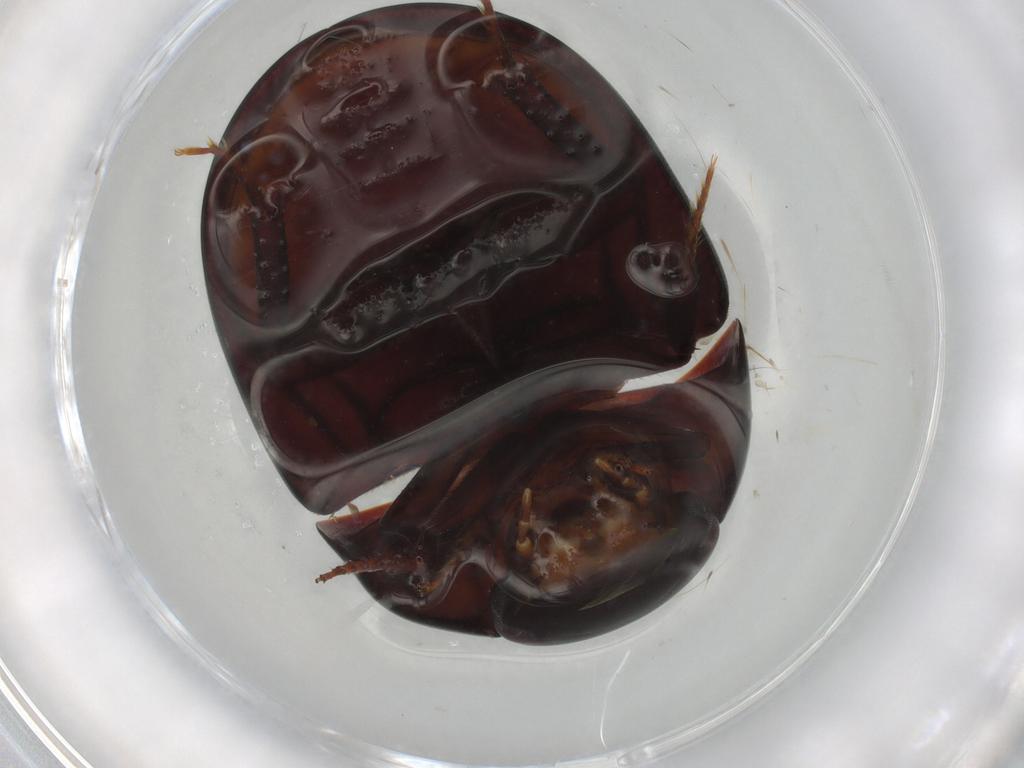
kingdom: Animalia
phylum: Arthropoda
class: Insecta
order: Coleoptera
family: Hydrophilidae
